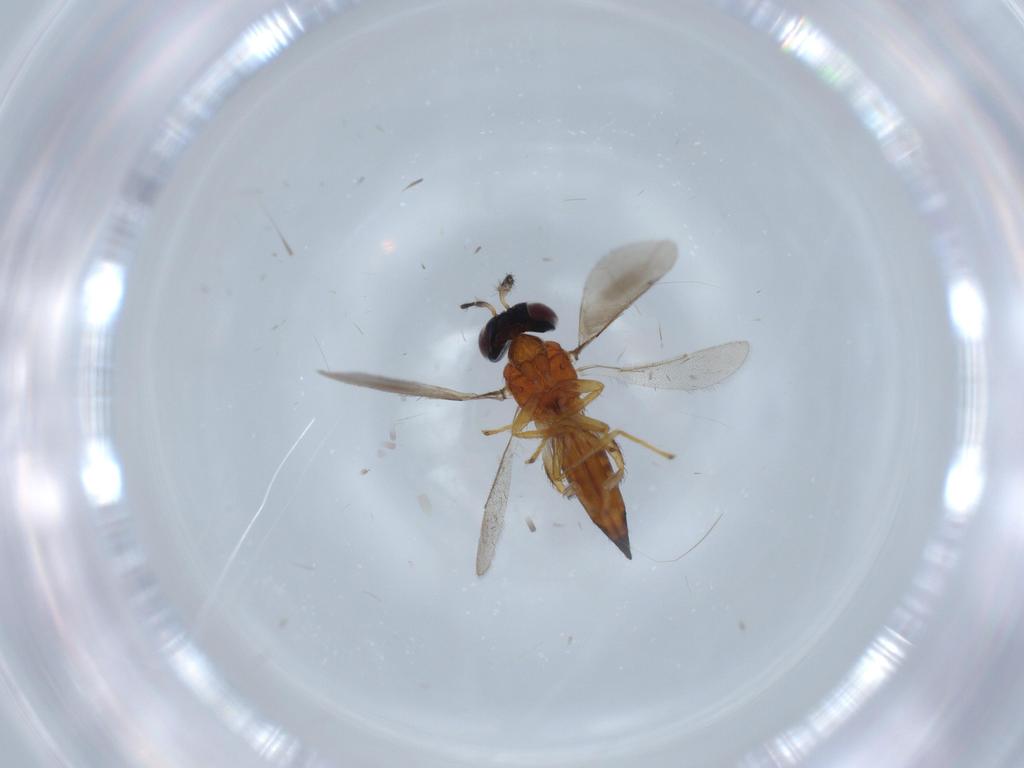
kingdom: Animalia
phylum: Arthropoda
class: Insecta
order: Hymenoptera
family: Eulophidae
